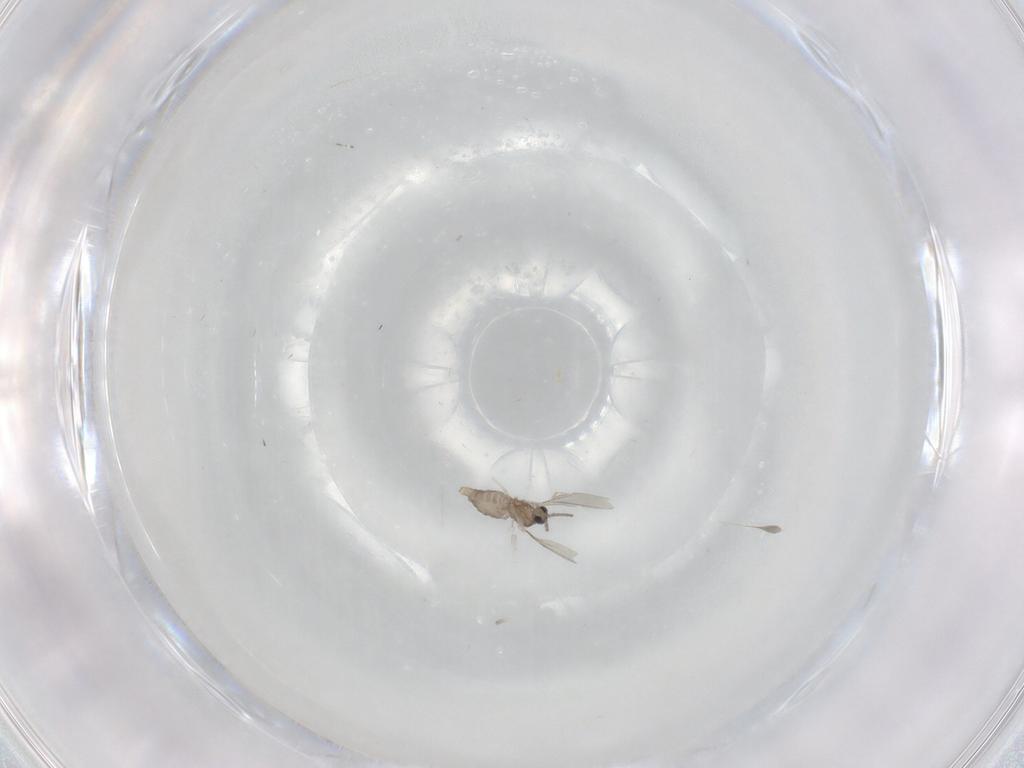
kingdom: Animalia
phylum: Arthropoda
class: Insecta
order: Diptera
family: Cecidomyiidae
